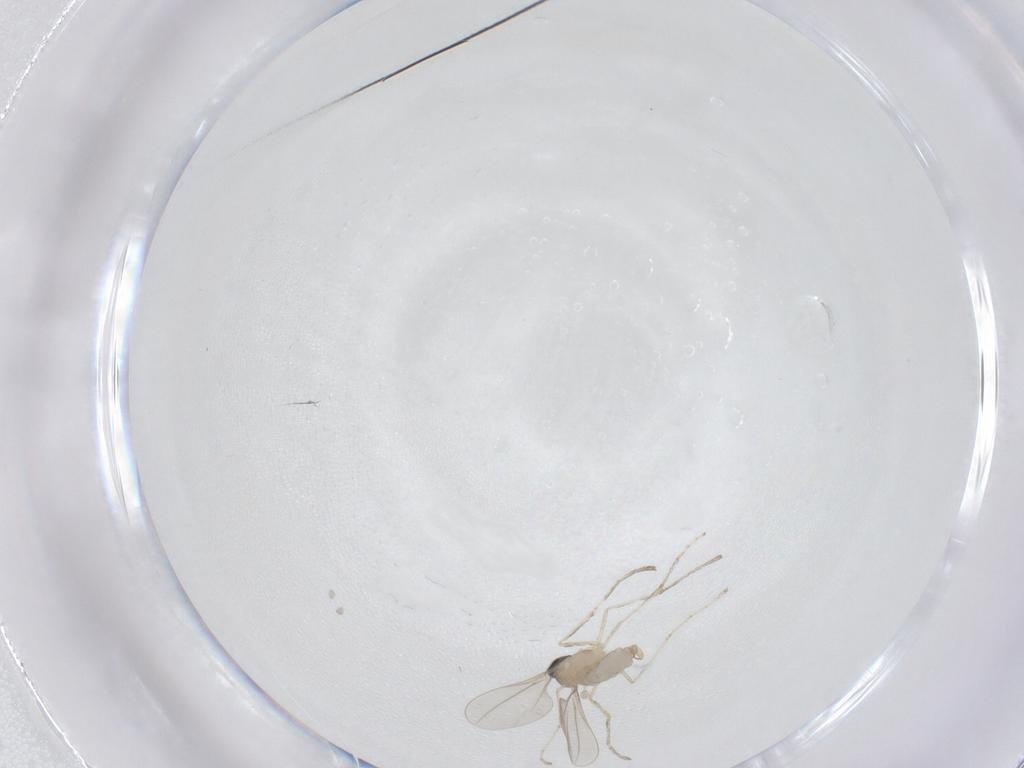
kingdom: Animalia
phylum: Arthropoda
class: Insecta
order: Diptera
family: Cecidomyiidae
